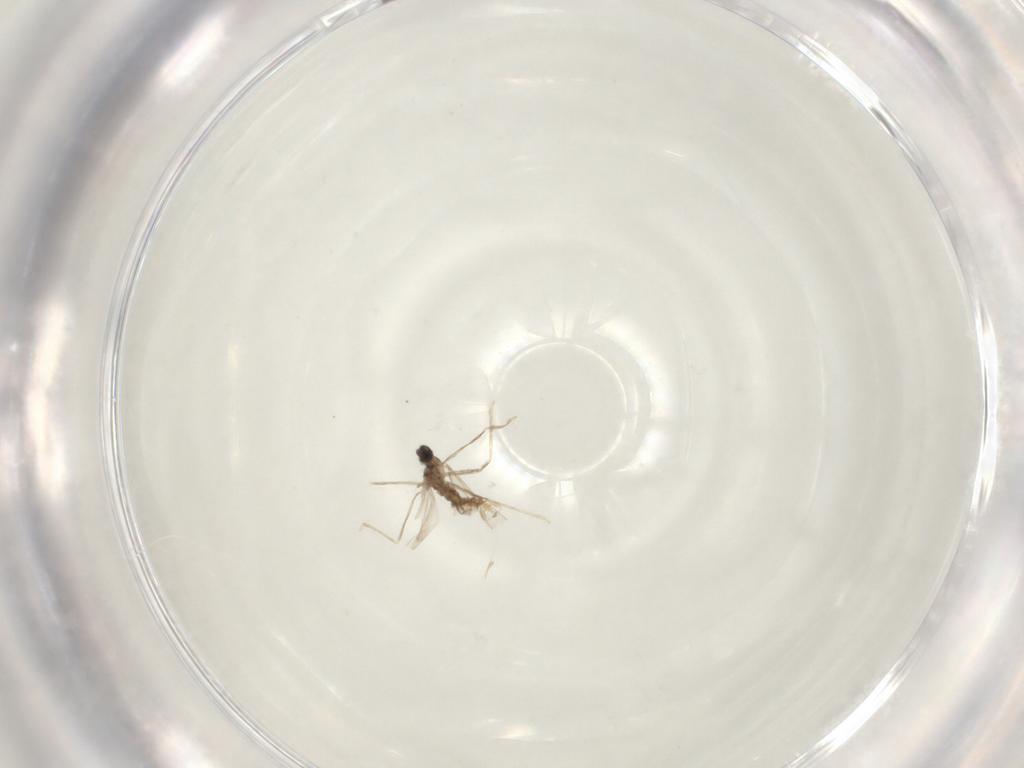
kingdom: Animalia
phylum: Arthropoda
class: Insecta
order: Diptera
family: Cecidomyiidae
